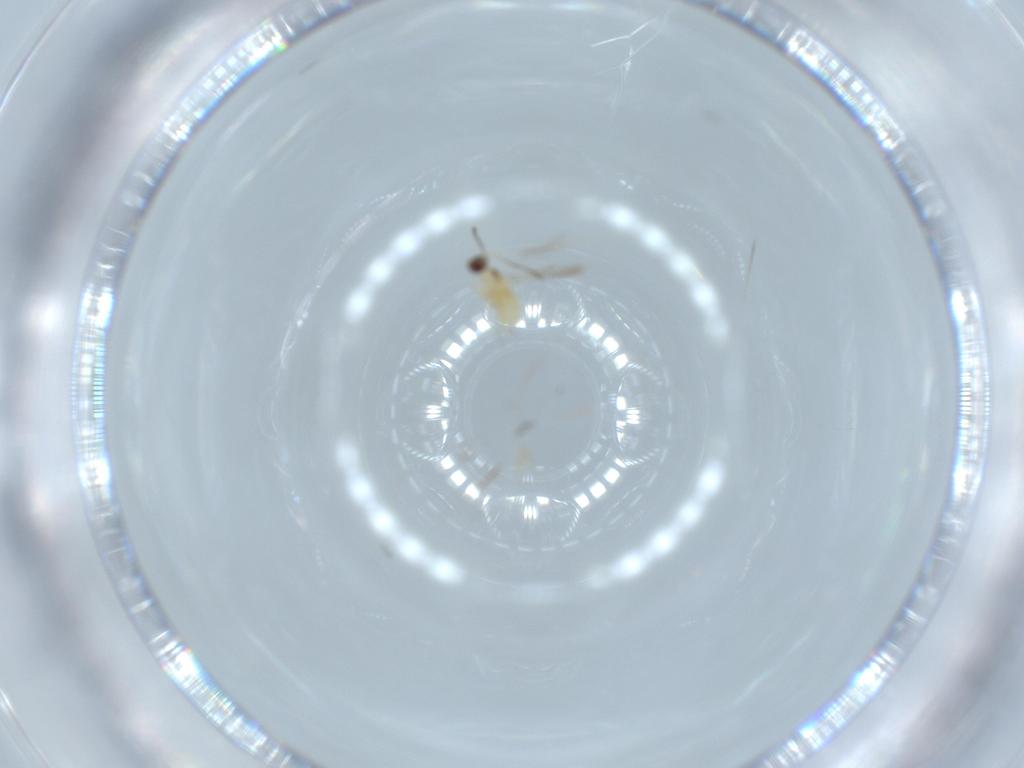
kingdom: Animalia
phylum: Arthropoda
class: Insecta
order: Hymenoptera
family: Mymaridae
